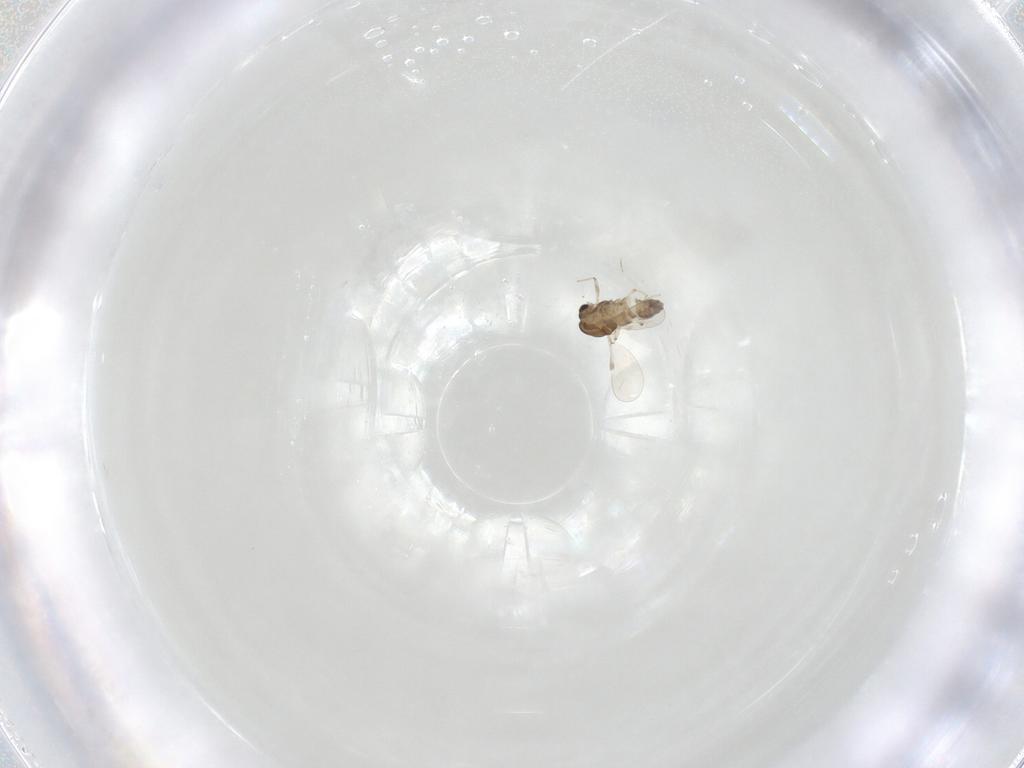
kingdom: Animalia
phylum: Arthropoda
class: Insecta
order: Diptera
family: Chironomidae
